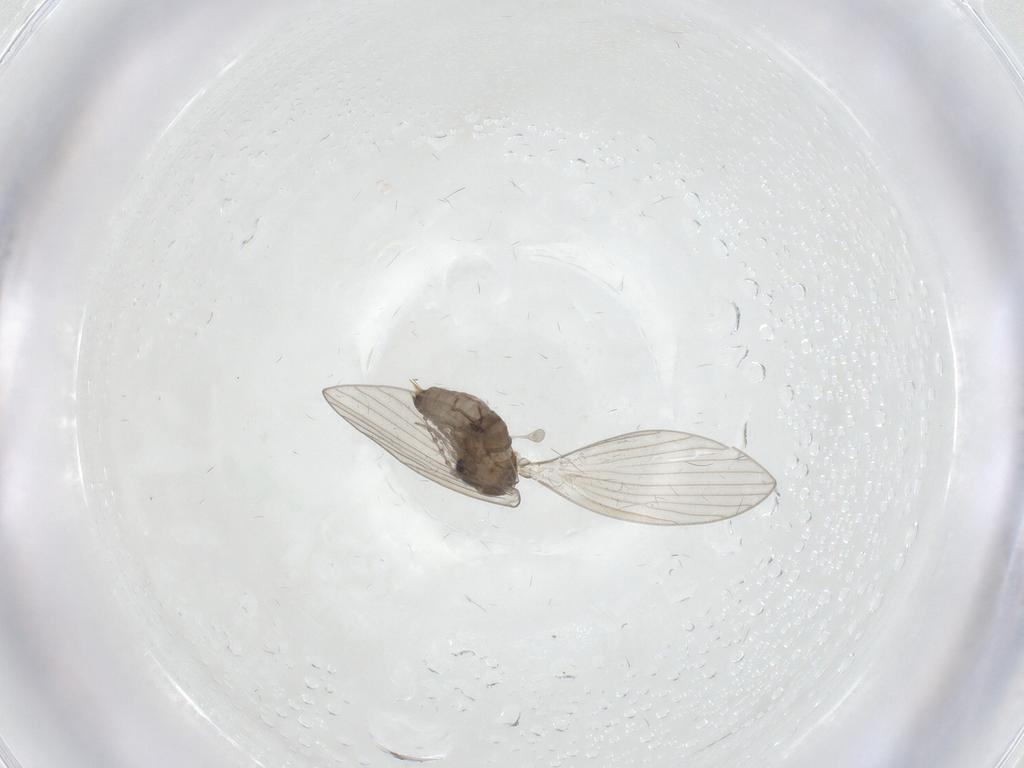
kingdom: Animalia
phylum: Arthropoda
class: Insecta
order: Diptera
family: Psychodidae
